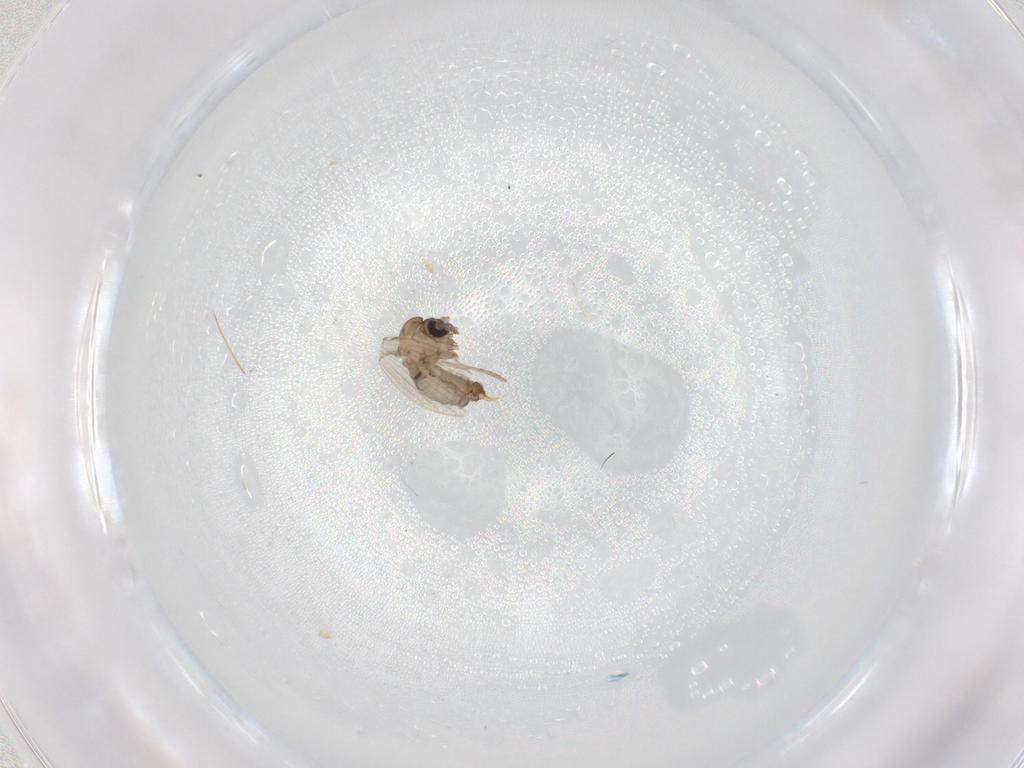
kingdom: Animalia
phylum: Arthropoda
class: Insecta
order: Diptera
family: Psychodidae
